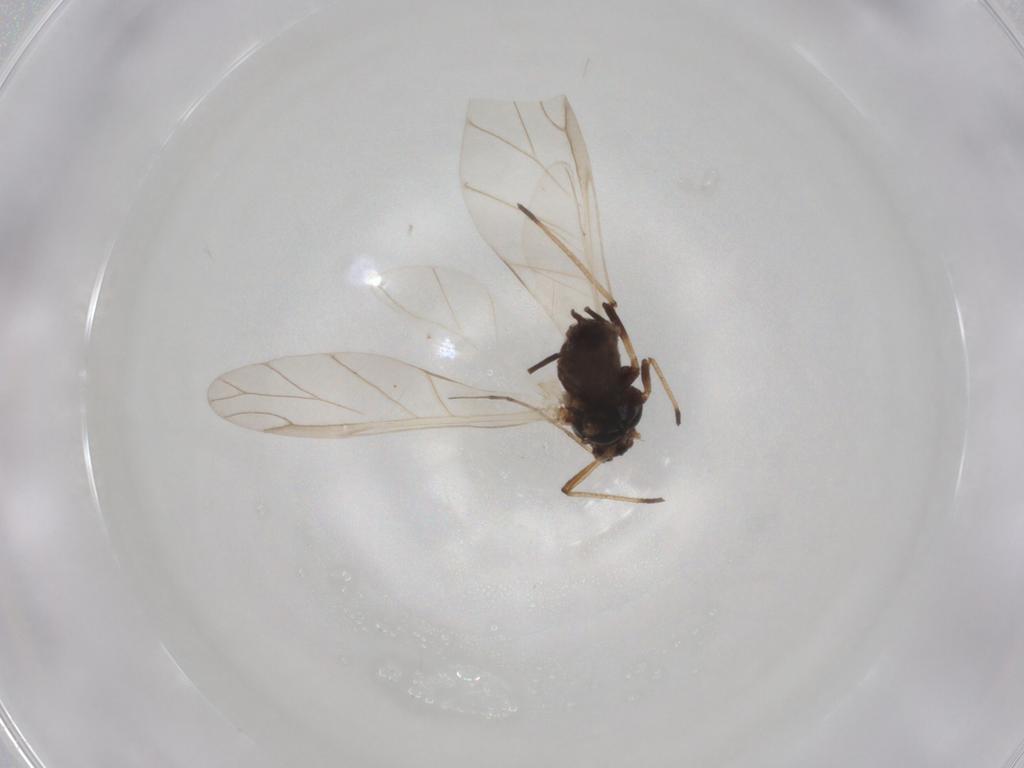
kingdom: Animalia
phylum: Arthropoda
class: Insecta
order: Hemiptera
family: Aphididae
